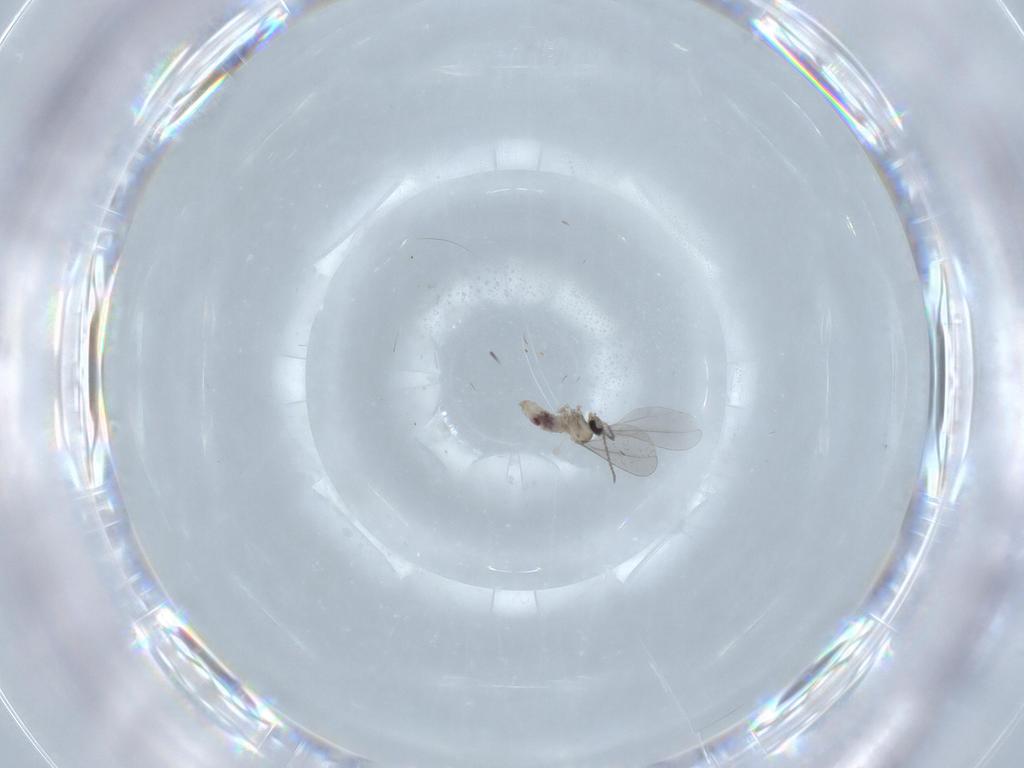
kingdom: Animalia
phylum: Arthropoda
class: Insecta
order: Diptera
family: Cecidomyiidae
